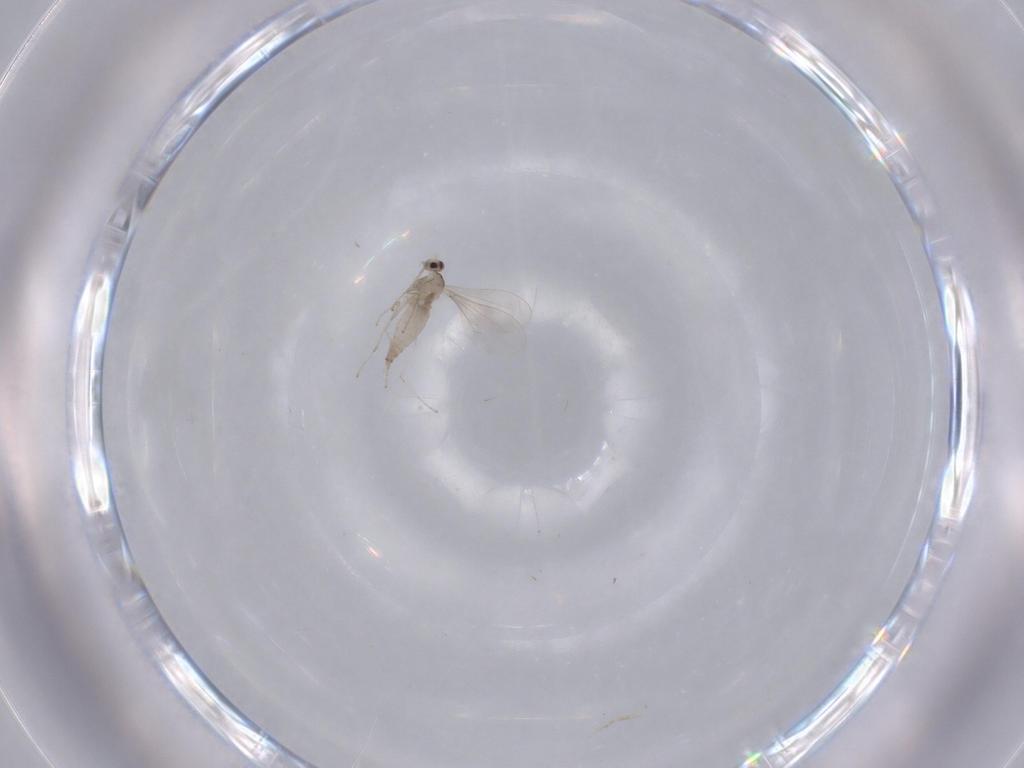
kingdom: Animalia
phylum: Arthropoda
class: Insecta
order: Diptera
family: Cecidomyiidae
